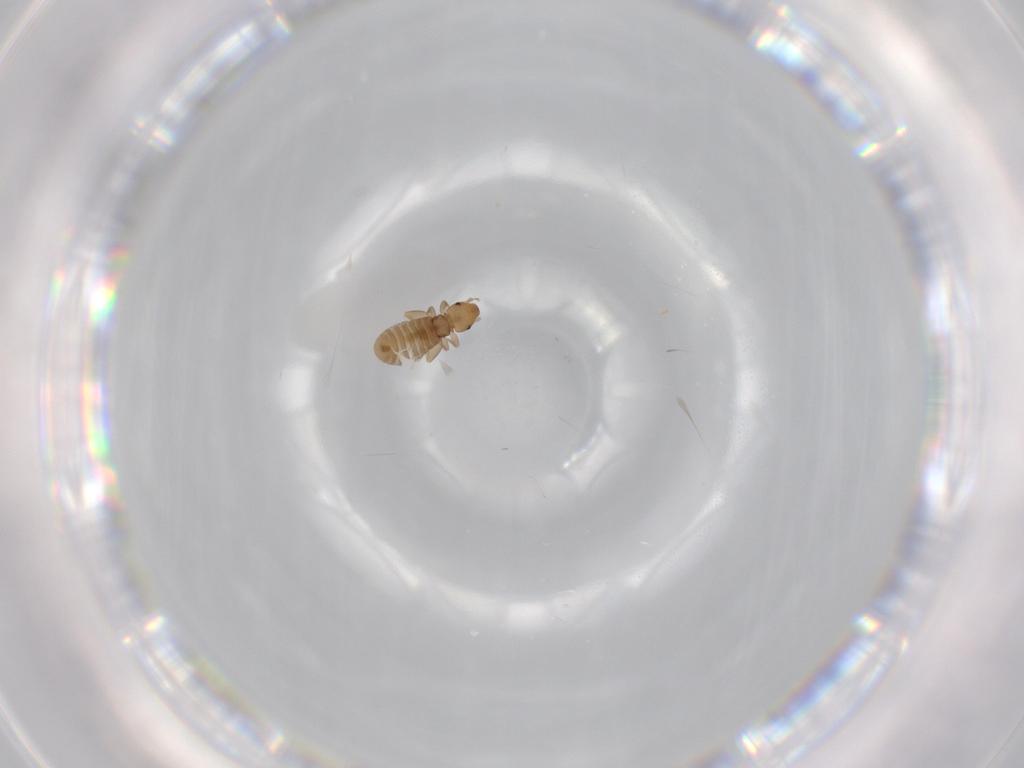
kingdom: Animalia
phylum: Arthropoda
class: Insecta
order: Psocodea
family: Liposcelididae
